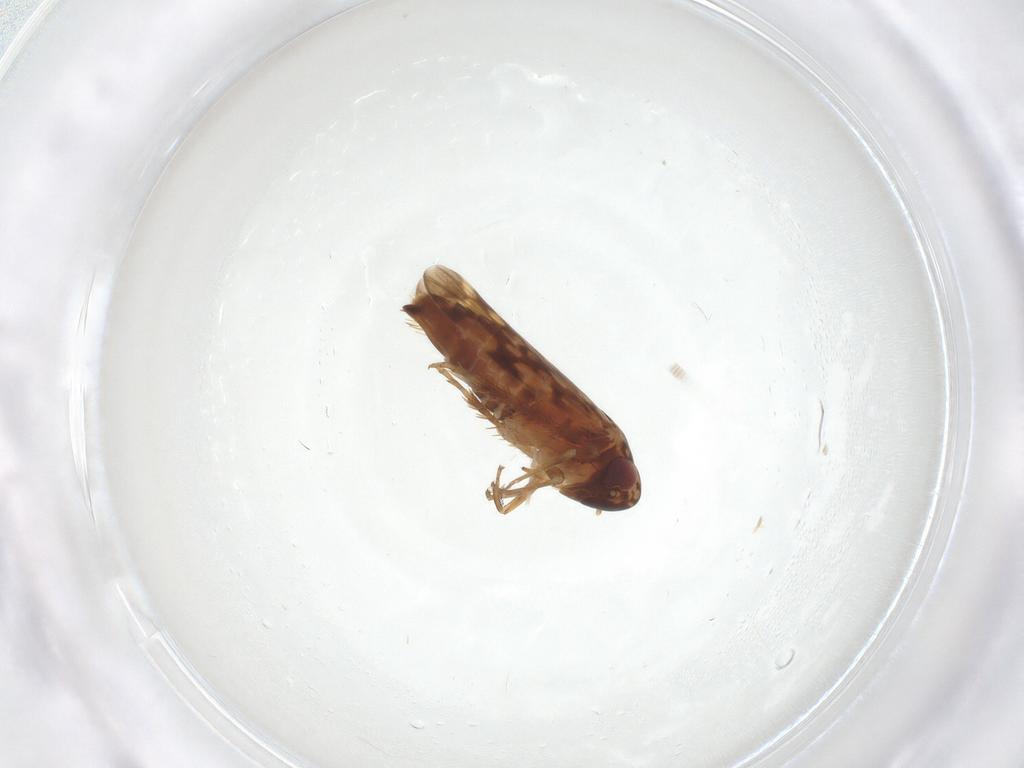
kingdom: Animalia
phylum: Arthropoda
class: Insecta
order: Hemiptera
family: Cicadellidae
